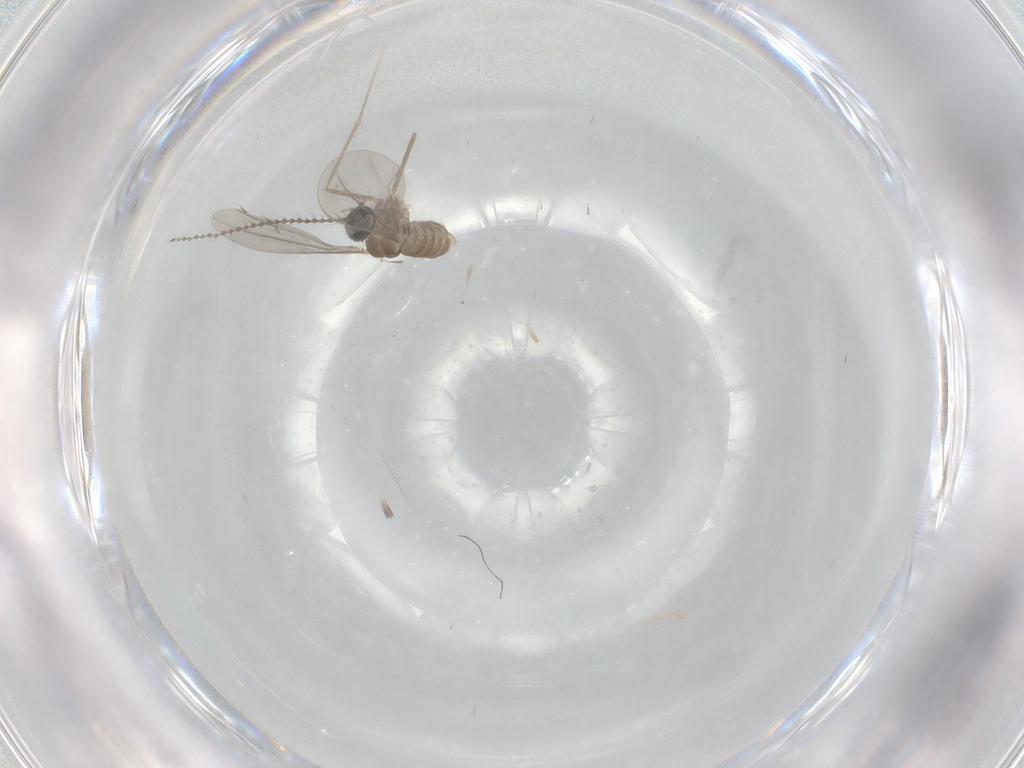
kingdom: Animalia
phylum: Arthropoda
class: Insecta
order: Diptera
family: Cecidomyiidae
